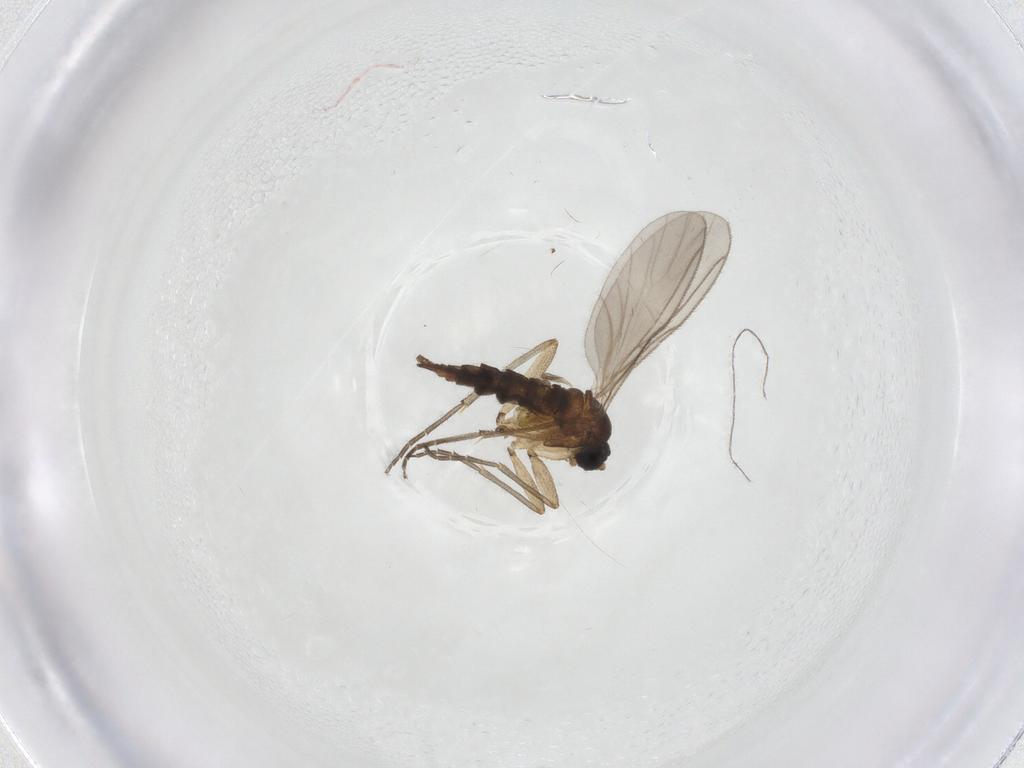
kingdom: Animalia
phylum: Arthropoda
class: Insecta
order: Diptera
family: Sciaridae
